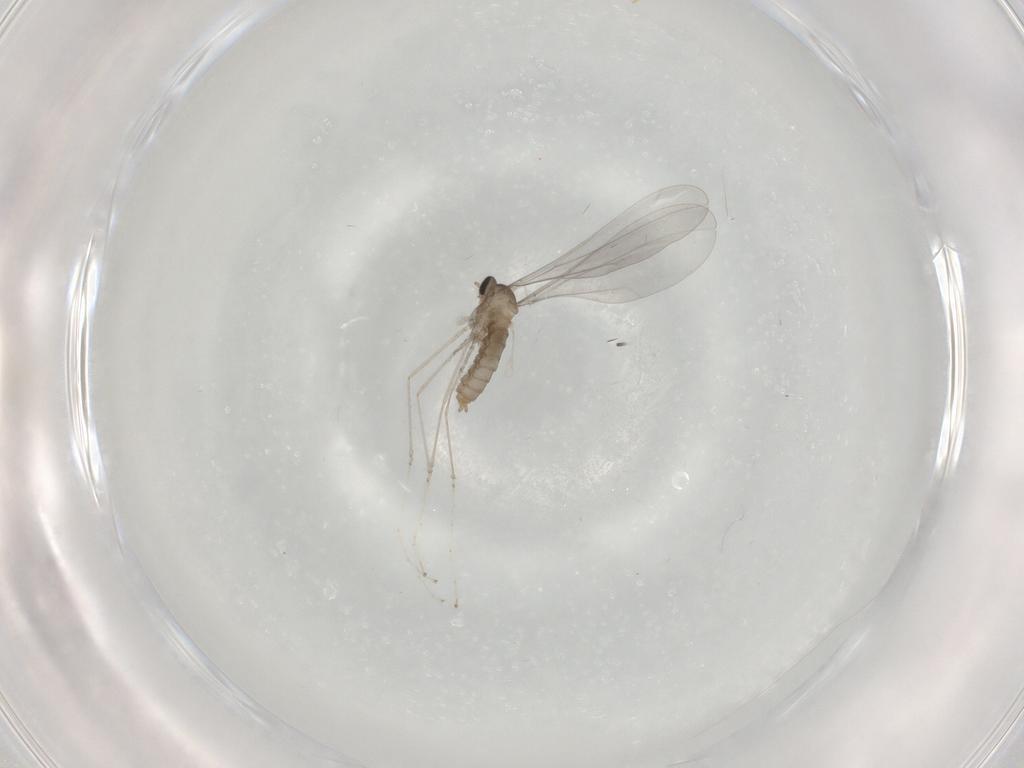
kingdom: Animalia
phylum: Arthropoda
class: Insecta
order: Diptera
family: Cecidomyiidae
